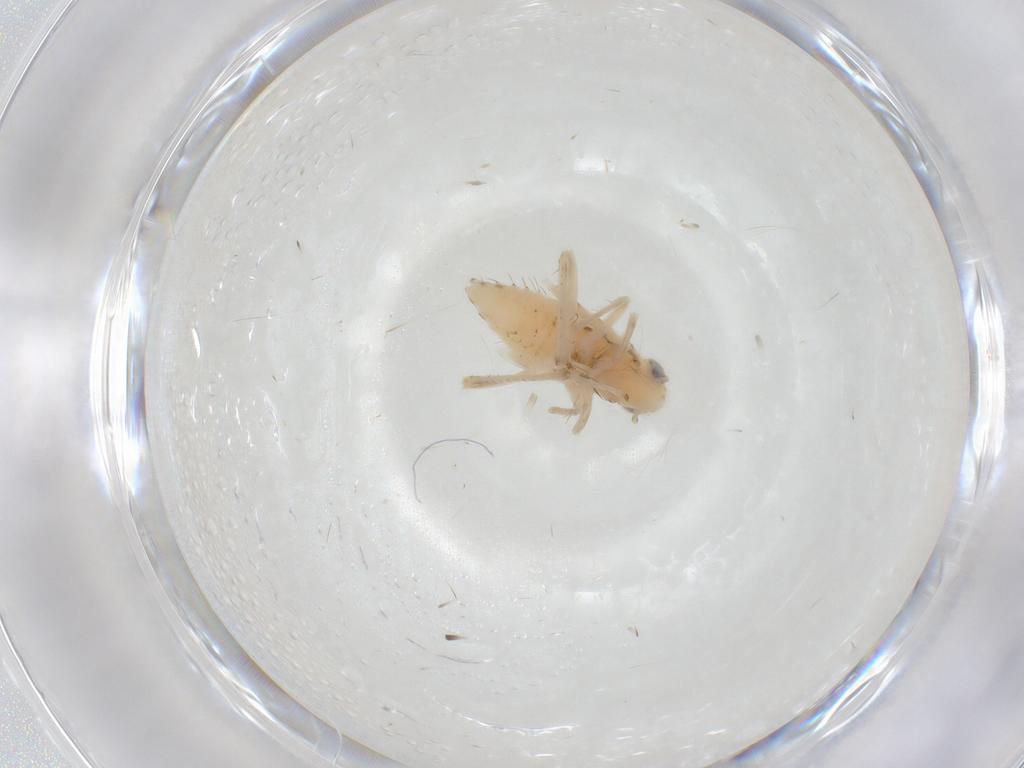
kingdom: Animalia
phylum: Arthropoda
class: Insecta
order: Hemiptera
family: Cicadellidae
